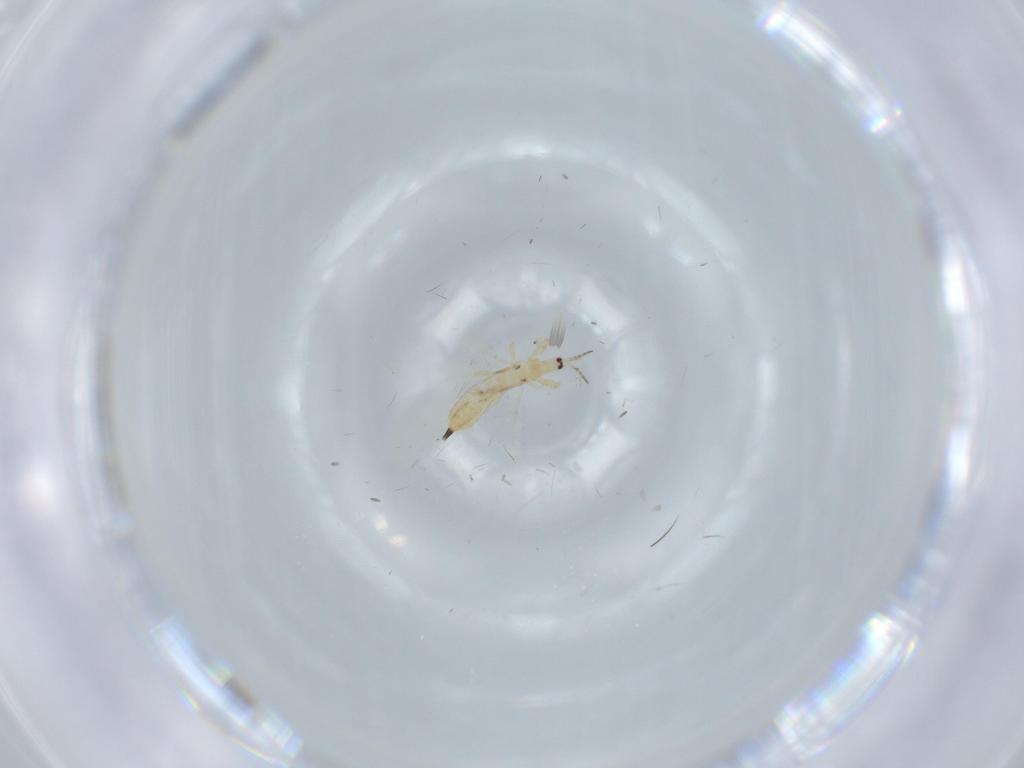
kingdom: Animalia
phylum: Arthropoda
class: Insecta
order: Thysanoptera
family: Phlaeothripidae
